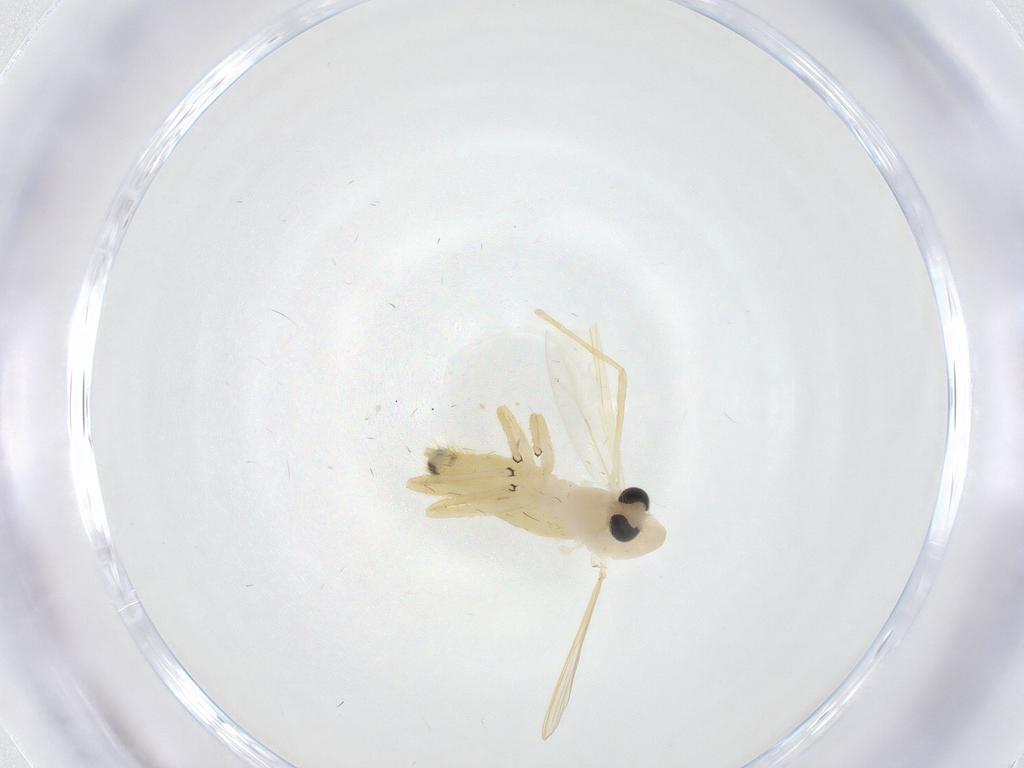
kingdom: Animalia
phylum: Arthropoda
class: Insecta
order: Diptera
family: Chironomidae
